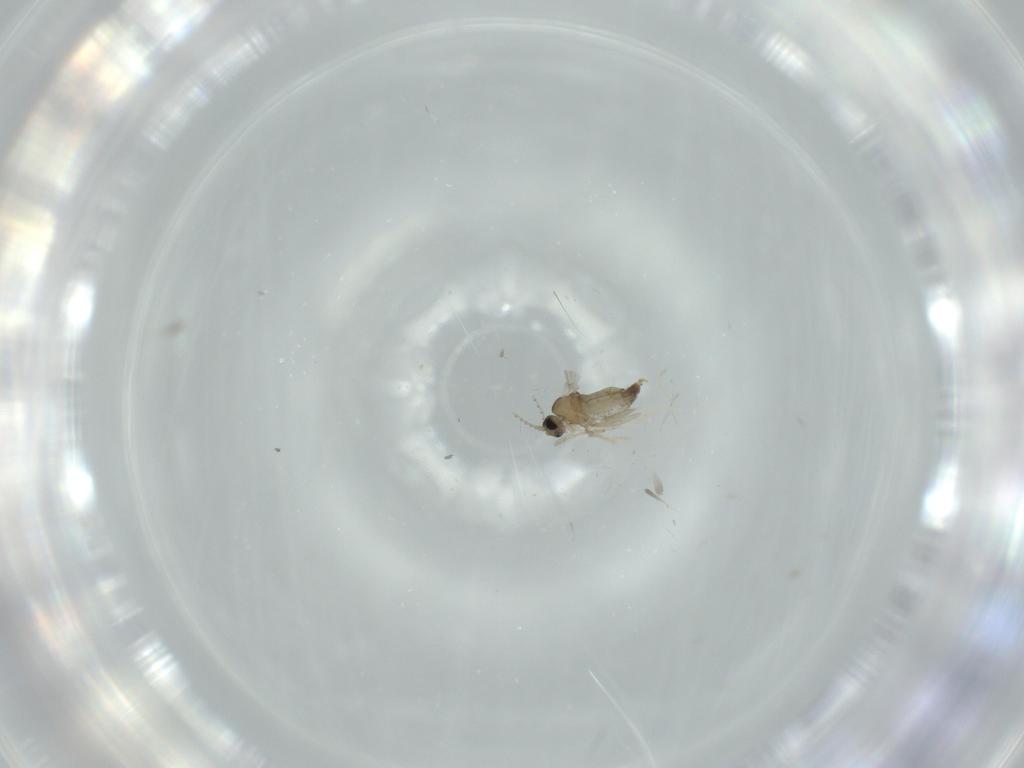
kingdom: Animalia
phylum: Arthropoda
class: Insecta
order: Diptera
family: Cecidomyiidae
